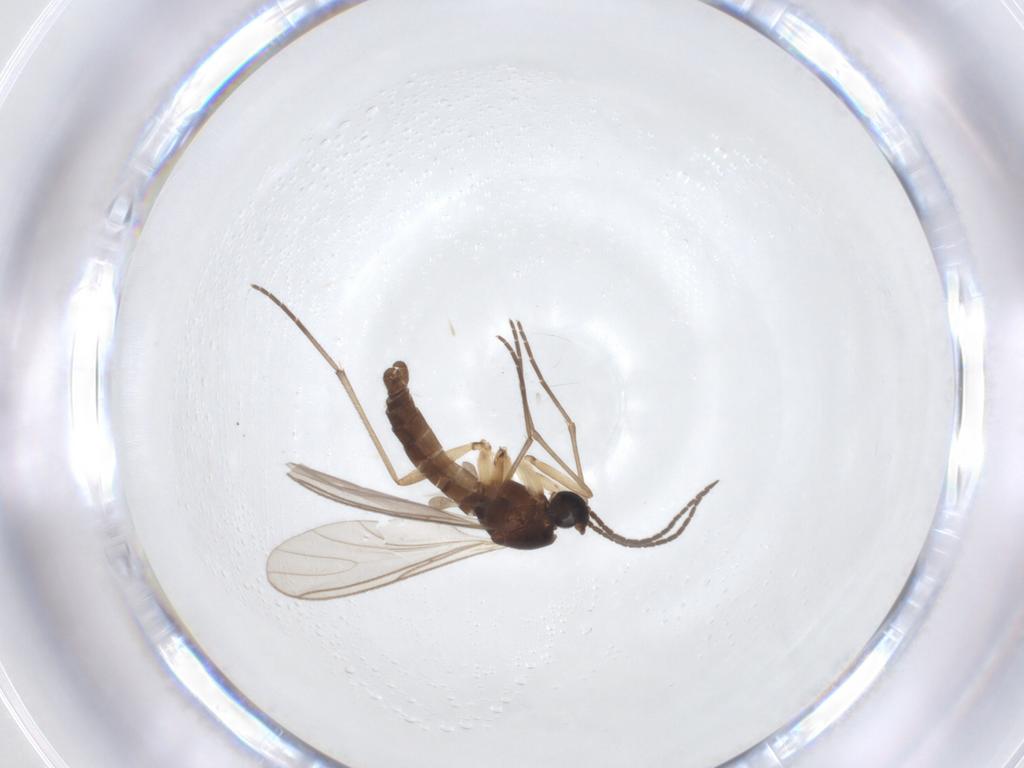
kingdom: Animalia
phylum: Arthropoda
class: Insecta
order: Diptera
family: Sciaridae
